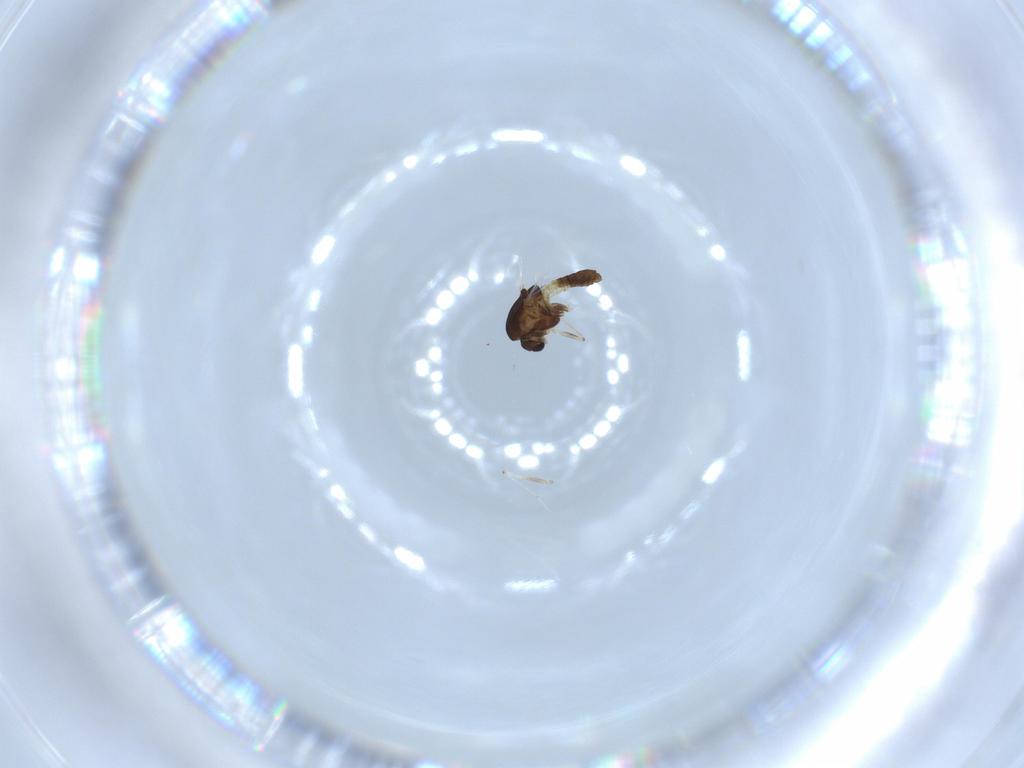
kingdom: Animalia
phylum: Arthropoda
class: Insecta
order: Diptera
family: Chironomidae
